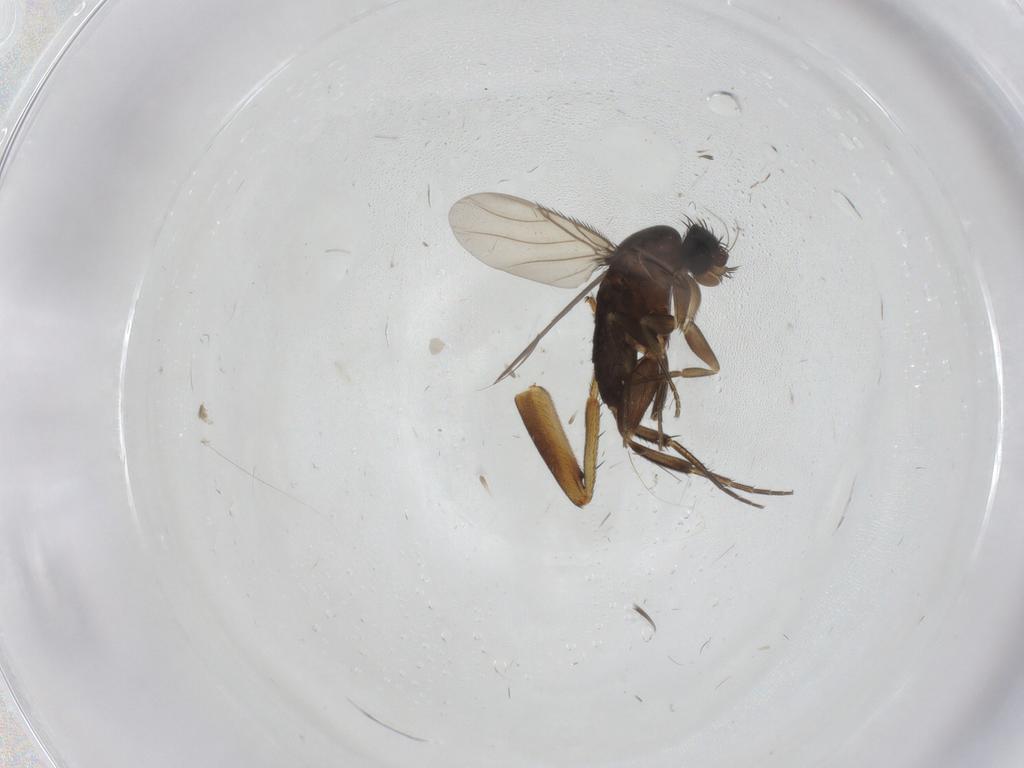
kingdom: Animalia
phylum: Arthropoda
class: Insecta
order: Diptera
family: Phoridae
